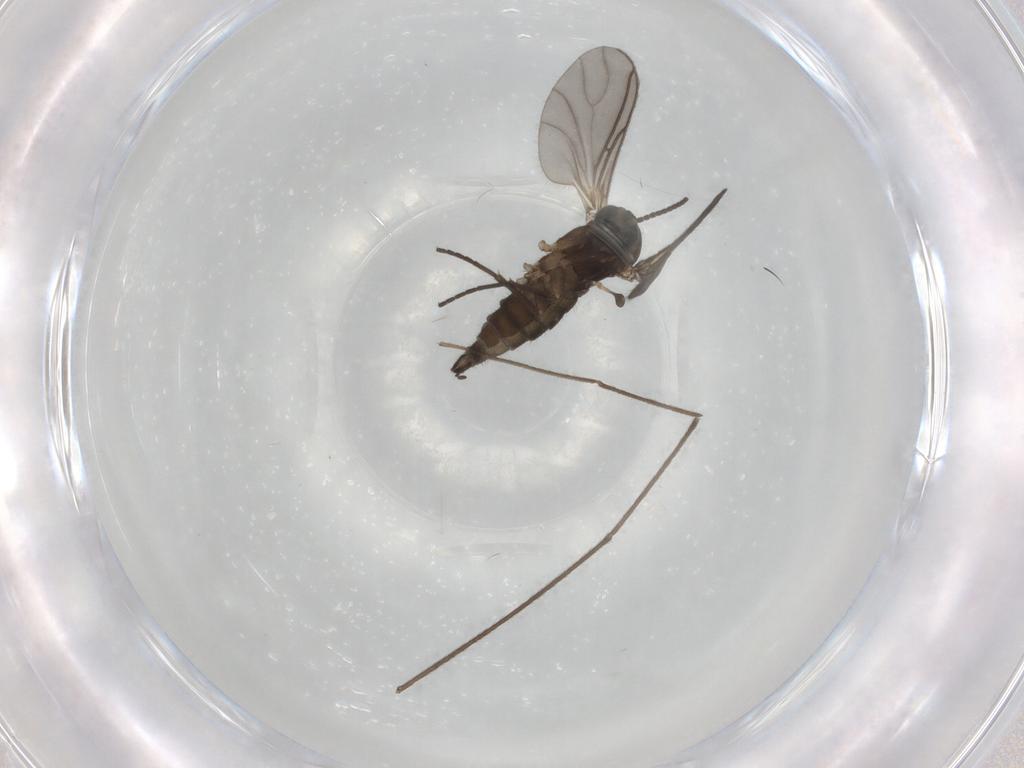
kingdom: Animalia
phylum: Arthropoda
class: Insecta
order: Diptera
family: Sciaridae
